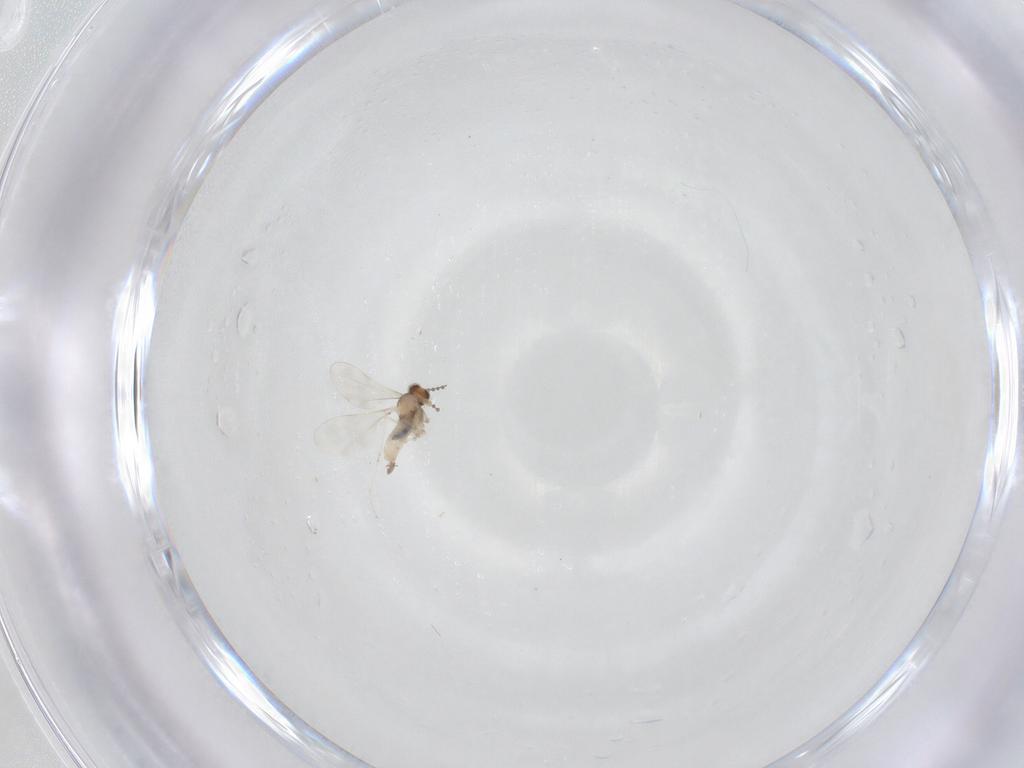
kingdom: Animalia
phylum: Arthropoda
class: Insecta
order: Diptera
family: Cecidomyiidae
